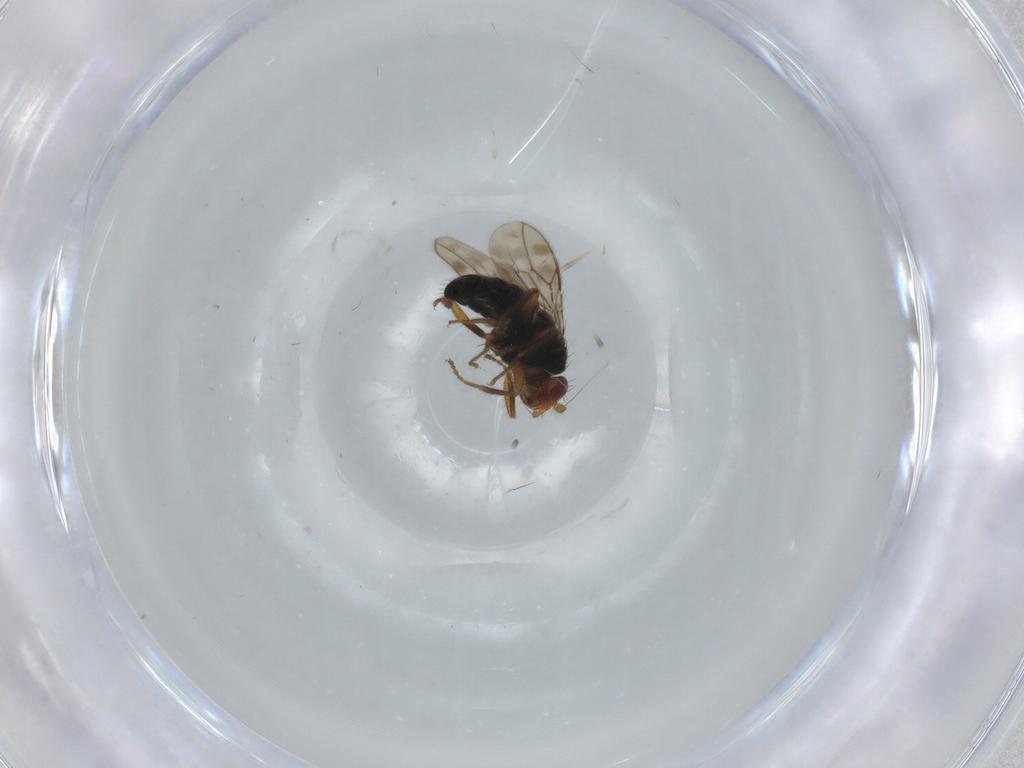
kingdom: Animalia
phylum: Arthropoda
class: Insecta
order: Diptera
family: Sphaeroceridae
